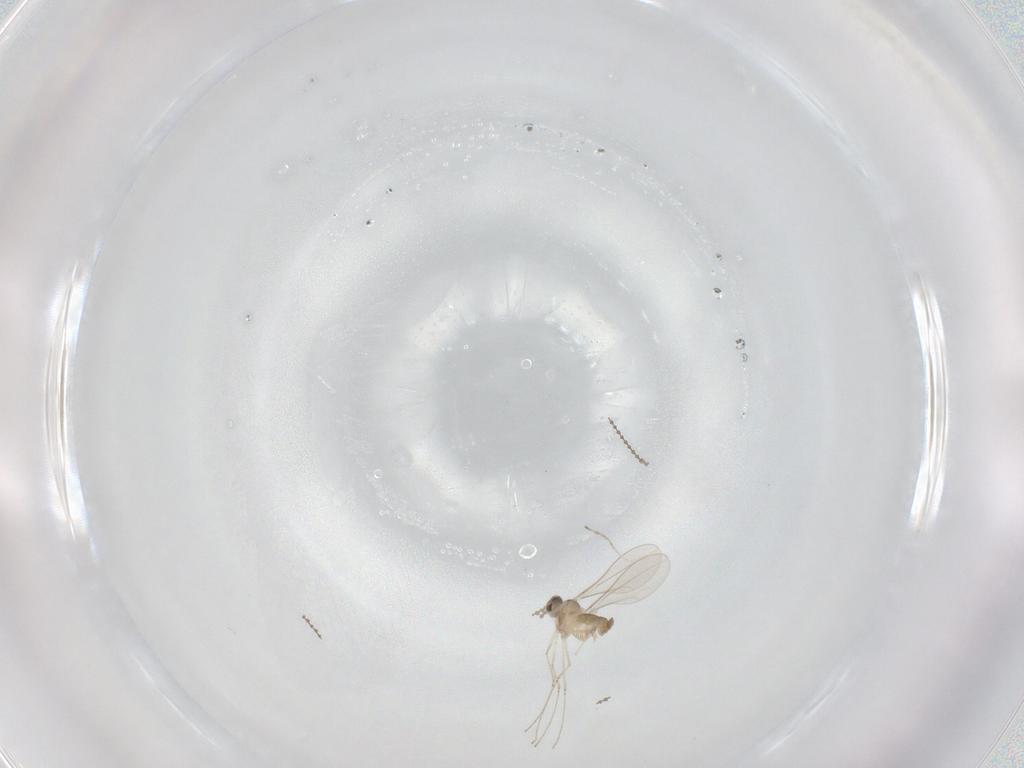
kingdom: Animalia
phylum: Arthropoda
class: Insecta
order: Diptera
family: Cecidomyiidae
